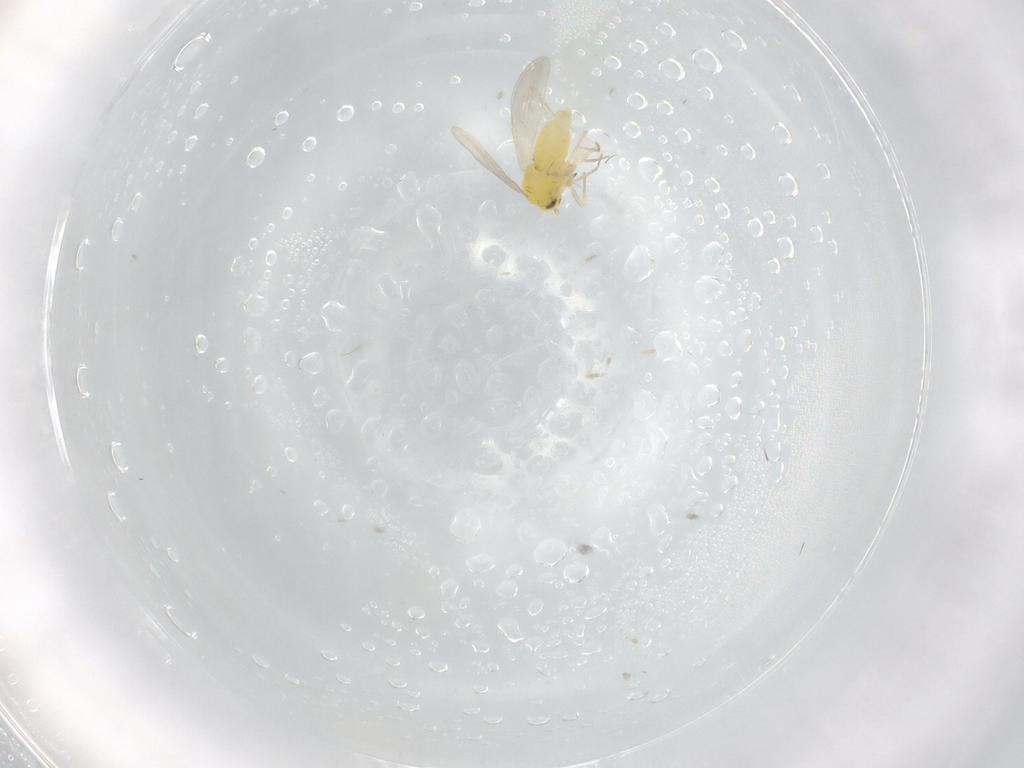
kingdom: Animalia
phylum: Arthropoda
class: Insecta
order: Hemiptera
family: Aleyrodidae
